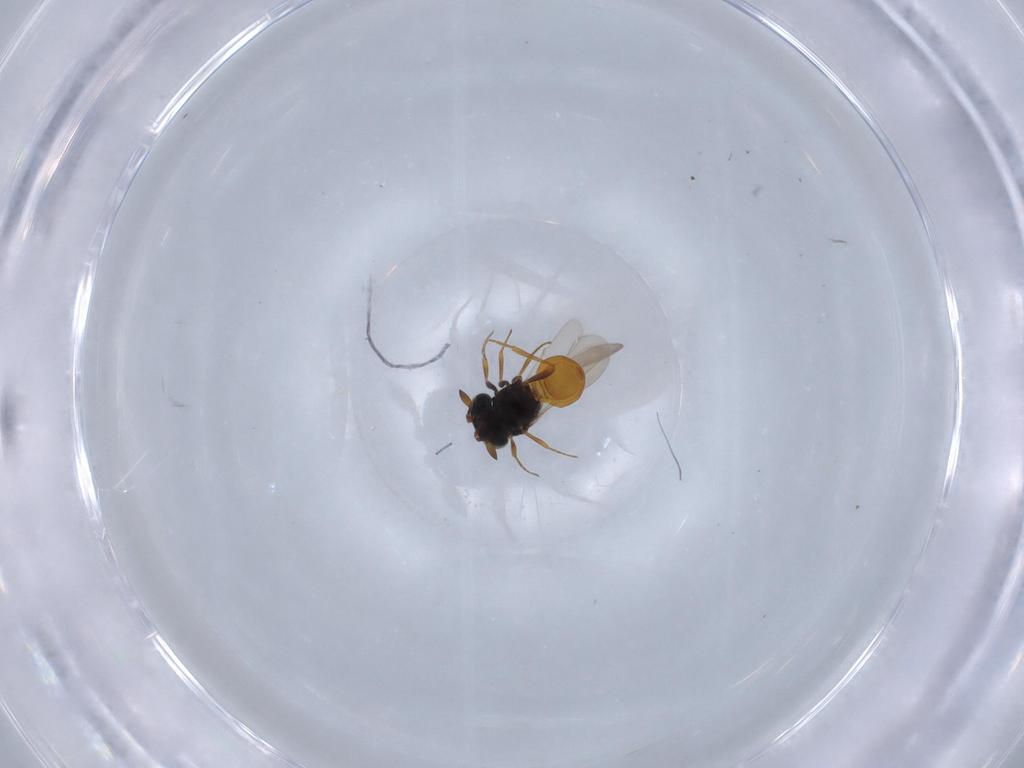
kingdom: Animalia
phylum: Arthropoda
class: Insecta
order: Hymenoptera
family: Scelionidae
